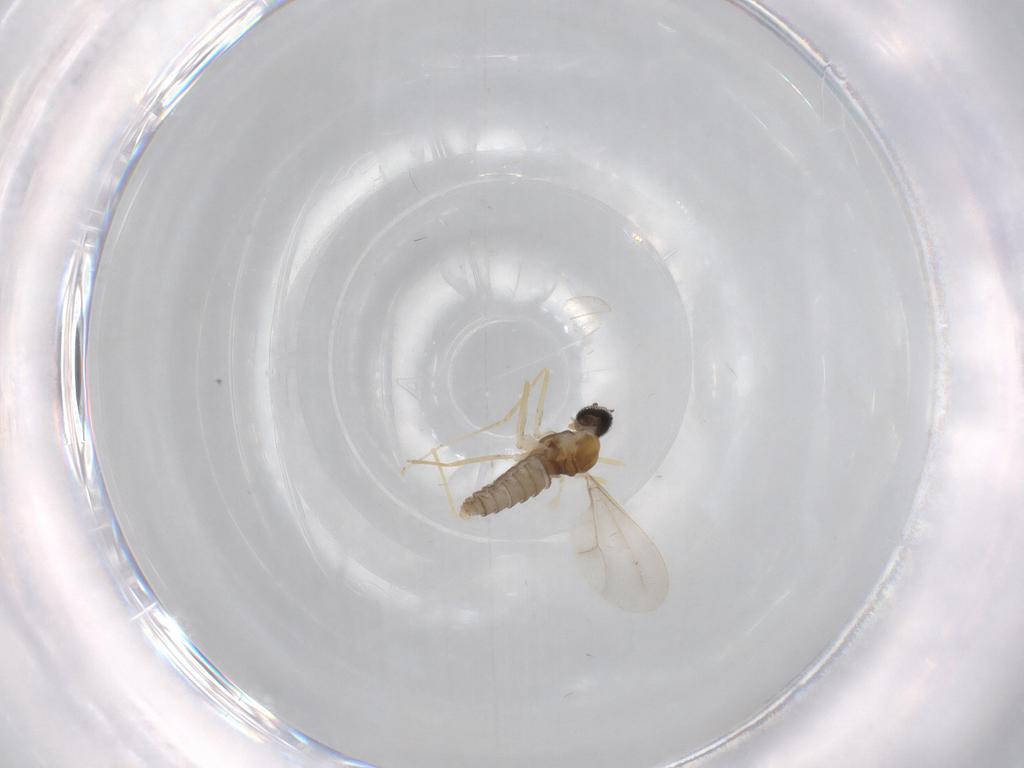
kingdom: Animalia
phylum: Arthropoda
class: Insecta
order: Diptera
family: Cecidomyiidae
